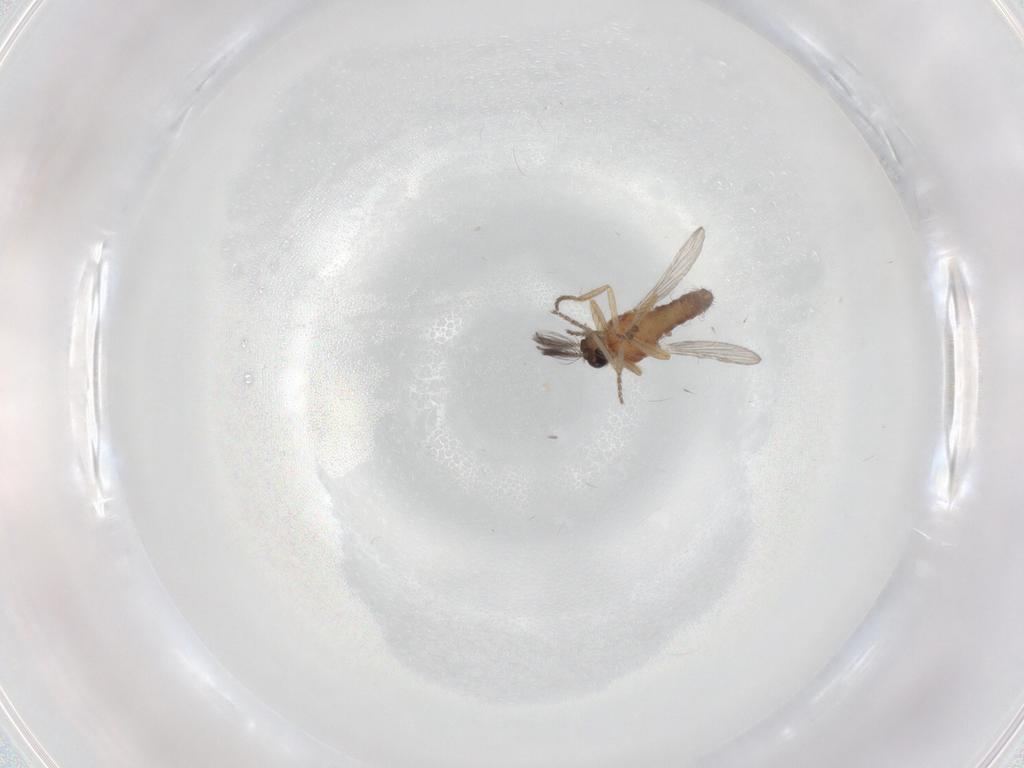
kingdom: Animalia
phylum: Arthropoda
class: Insecta
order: Diptera
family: Ceratopogonidae
